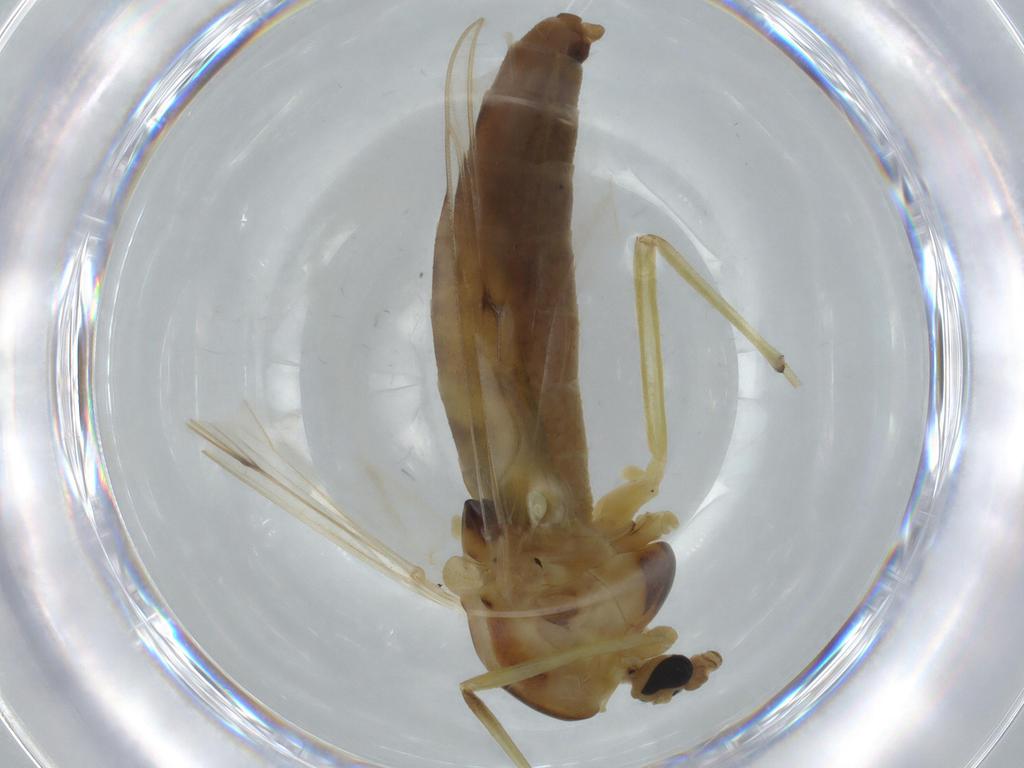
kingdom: Animalia
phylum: Arthropoda
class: Insecta
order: Diptera
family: Chironomidae
